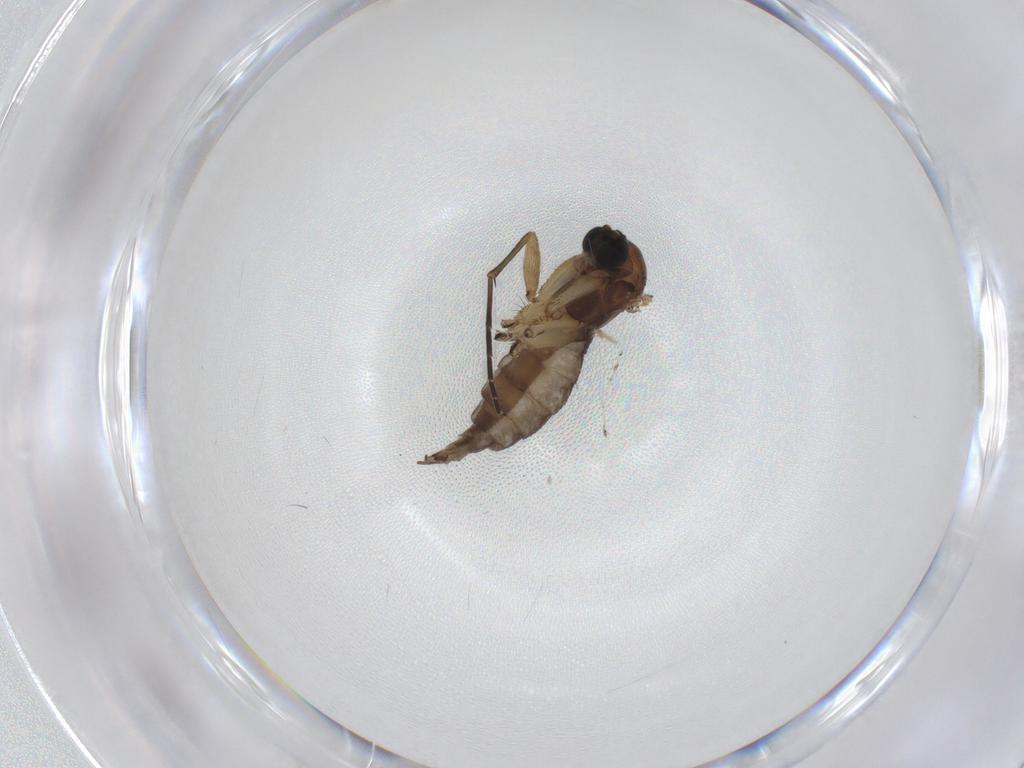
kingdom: Animalia
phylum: Arthropoda
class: Insecta
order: Diptera
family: Sciaridae
